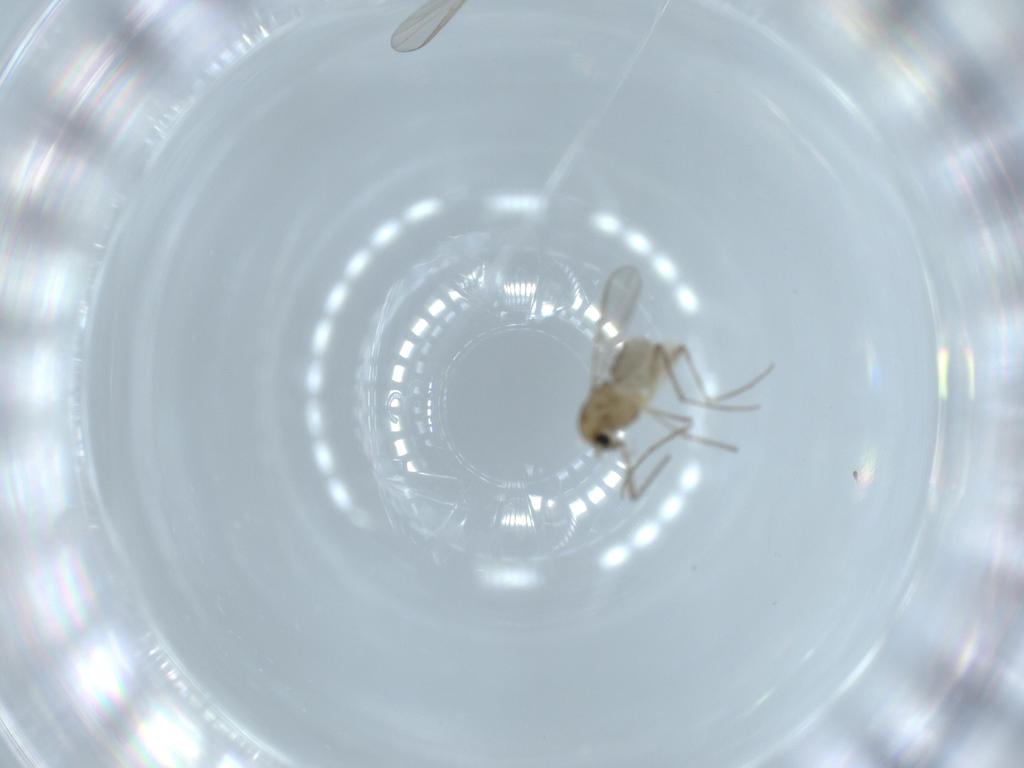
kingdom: Animalia
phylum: Arthropoda
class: Insecta
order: Diptera
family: Chironomidae
